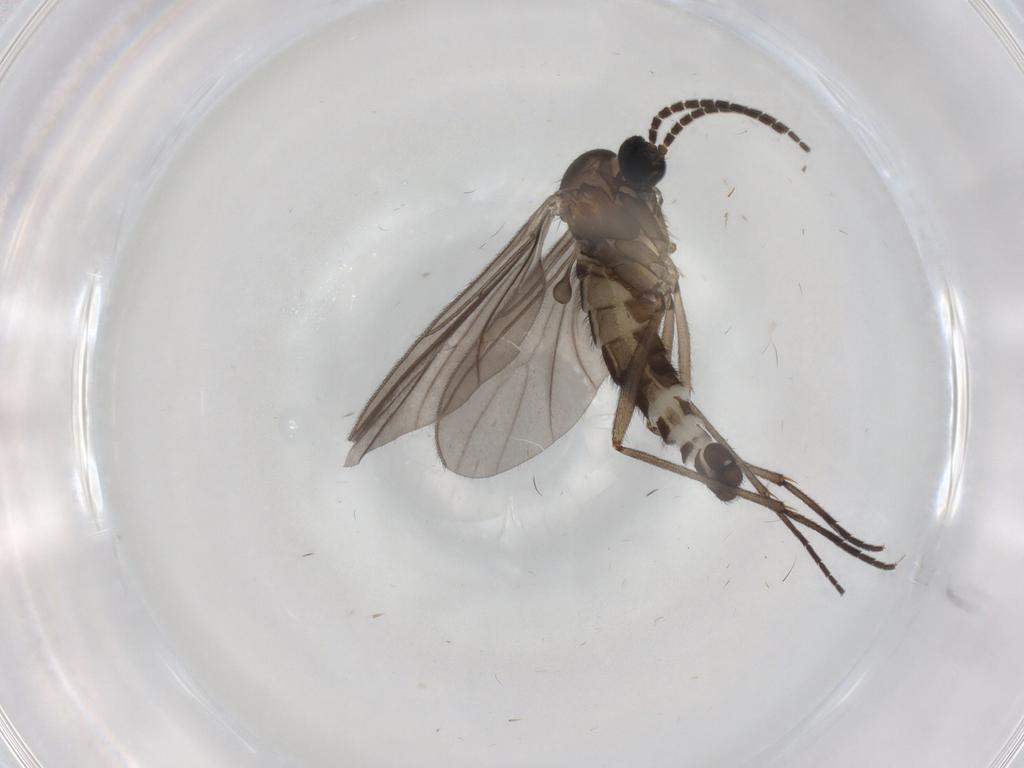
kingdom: Animalia
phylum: Arthropoda
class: Insecta
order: Diptera
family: Sciaridae
